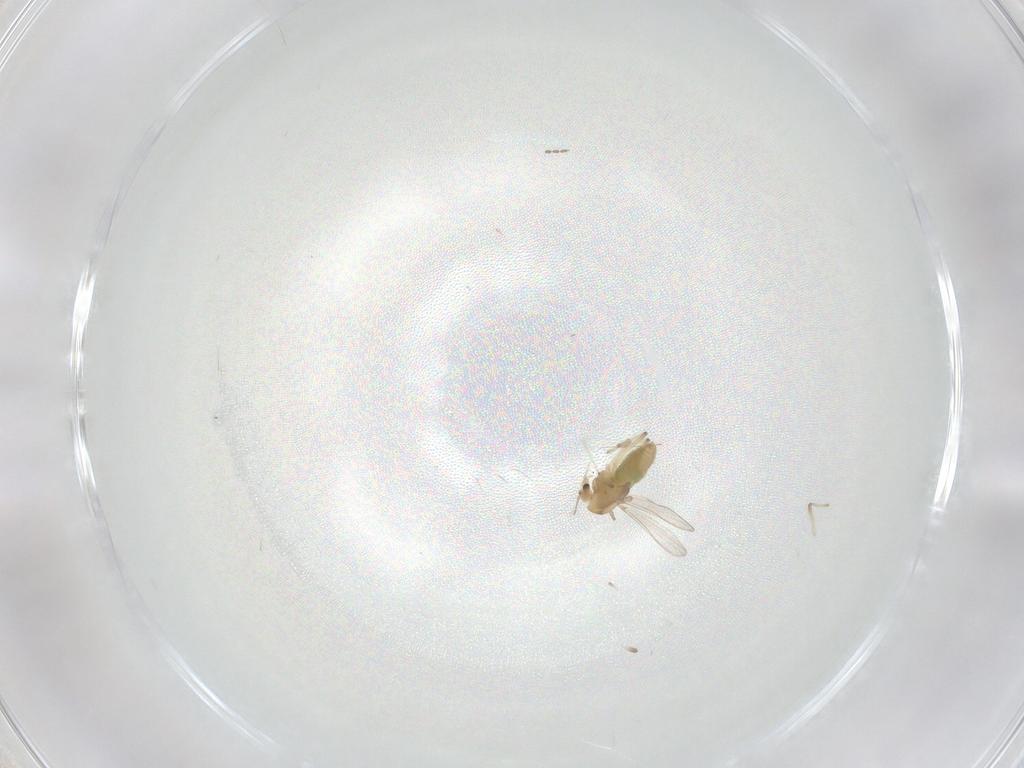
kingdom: Animalia
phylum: Arthropoda
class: Insecta
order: Diptera
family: Chironomidae
